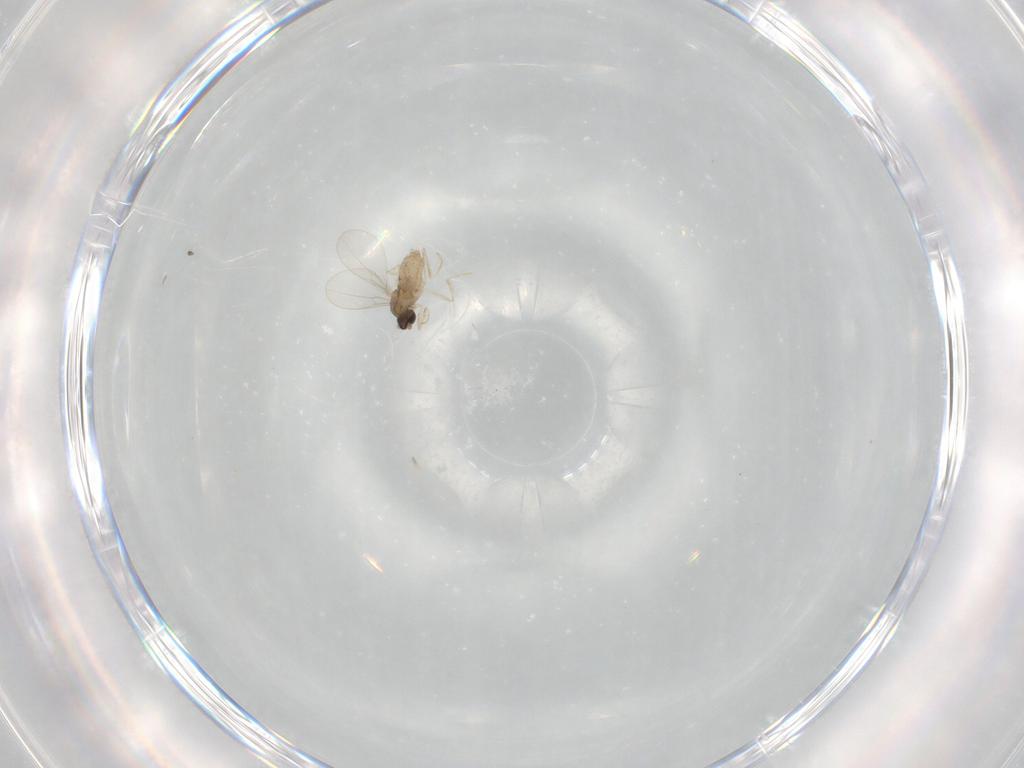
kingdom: Animalia
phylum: Arthropoda
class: Insecta
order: Diptera
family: Cecidomyiidae
